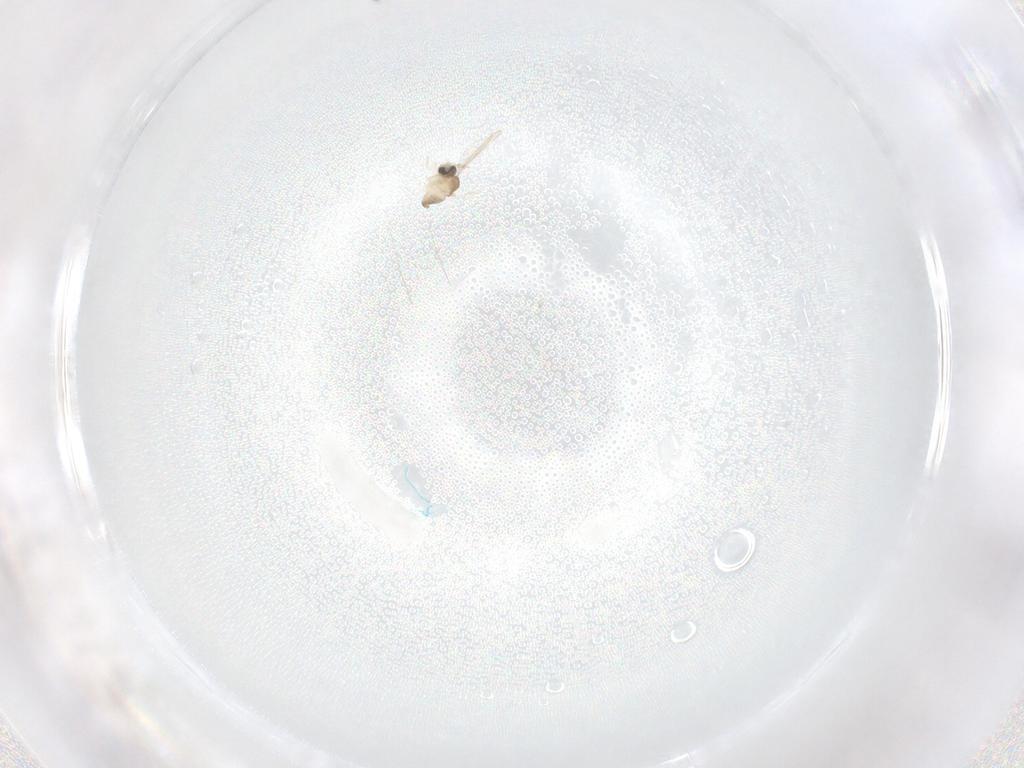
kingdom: Animalia
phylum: Arthropoda
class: Insecta
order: Diptera
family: Cecidomyiidae
